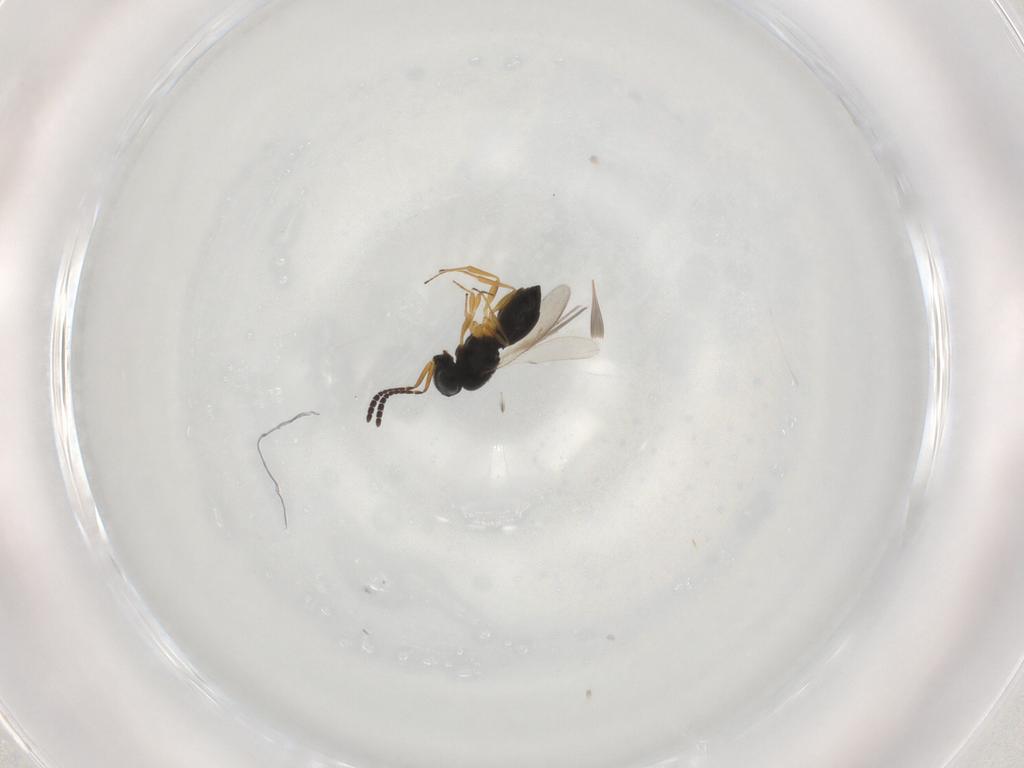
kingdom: Animalia
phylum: Arthropoda
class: Insecta
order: Hymenoptera
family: Scelionidae
